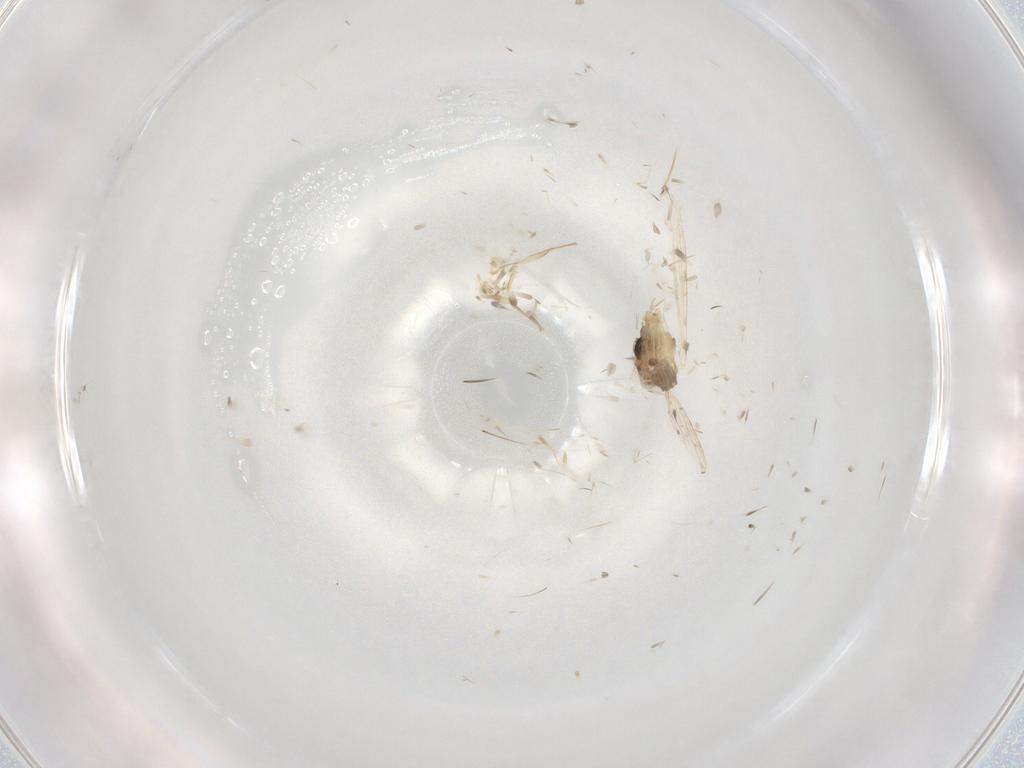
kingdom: Animalia
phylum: Arthropoda
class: Insecta
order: Diptera
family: Psychodidae
